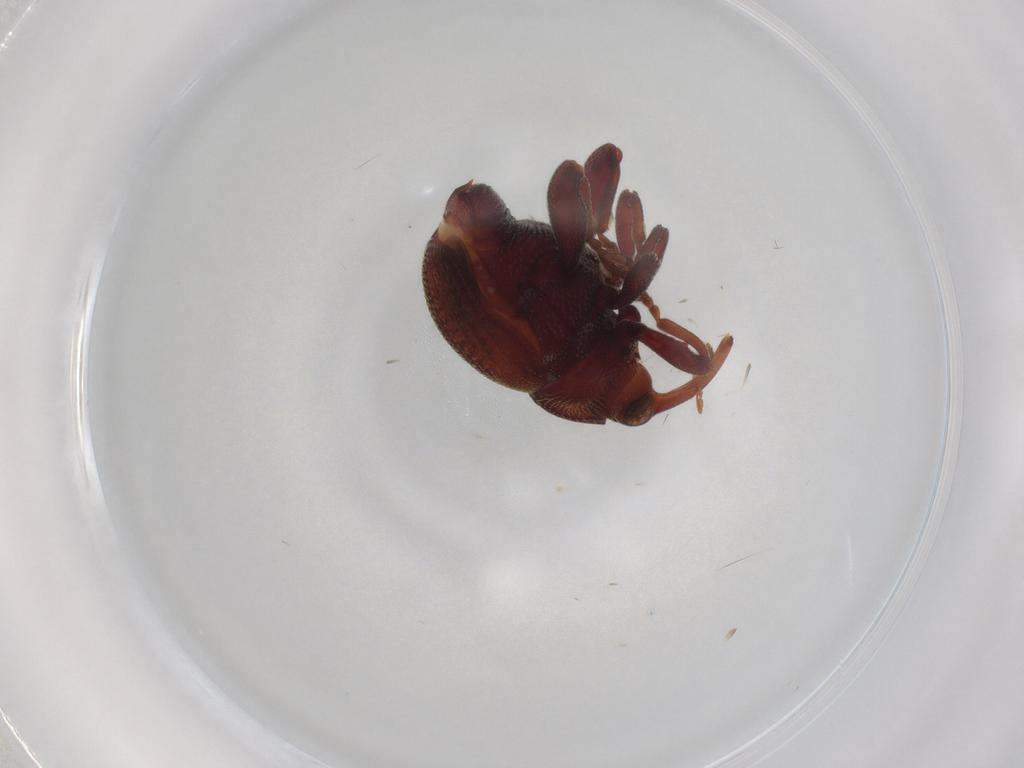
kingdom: Animalia
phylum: Arthropoda
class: Insecta
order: Coleoptera
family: Curculionidae
